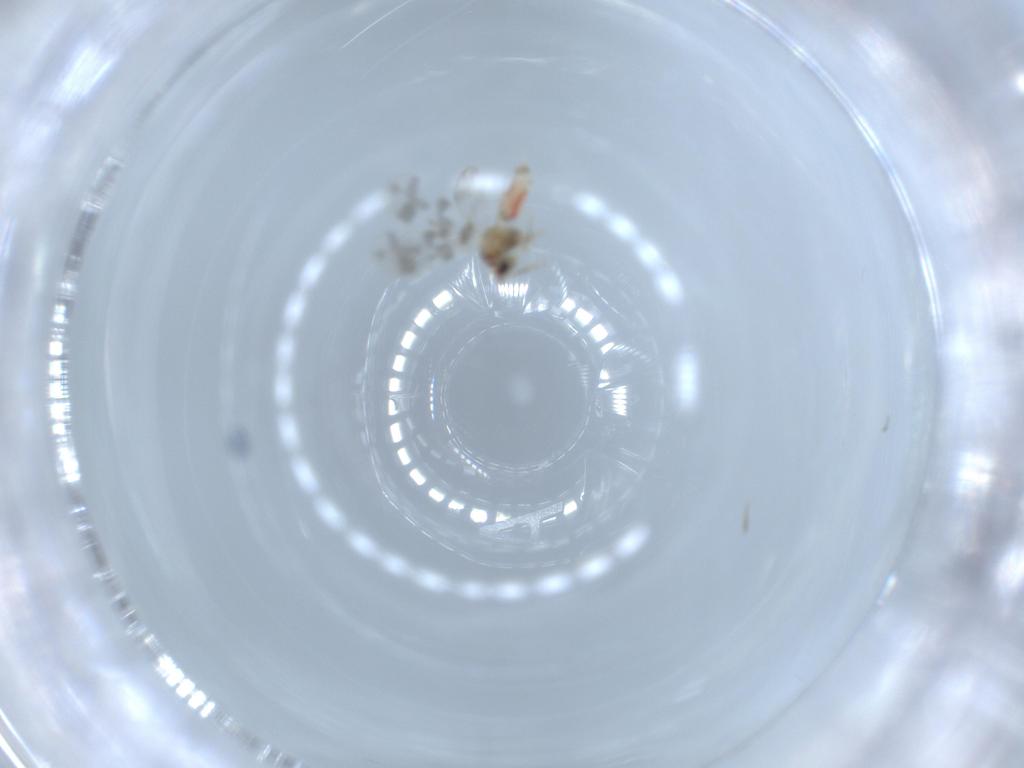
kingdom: Animalia
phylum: Arthropoda
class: Insecta
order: Hemiptera
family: Aleyrodidae
